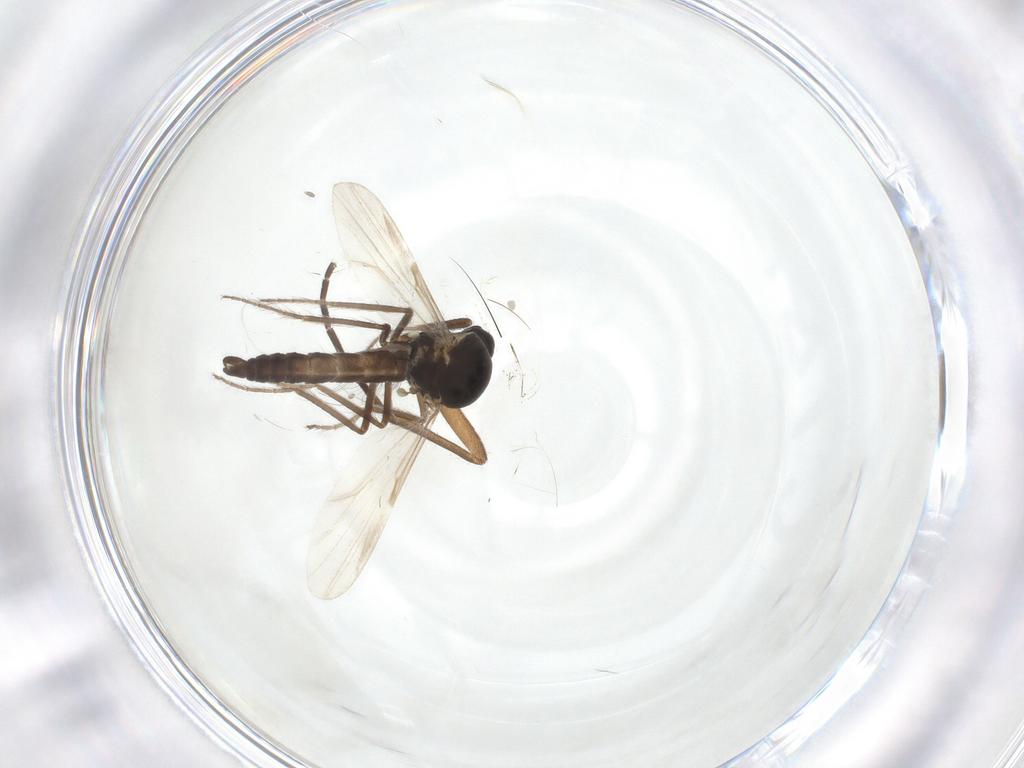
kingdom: Animalia
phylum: Arthropoda
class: Insecta
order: Diptera
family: Ceratopogonidae
